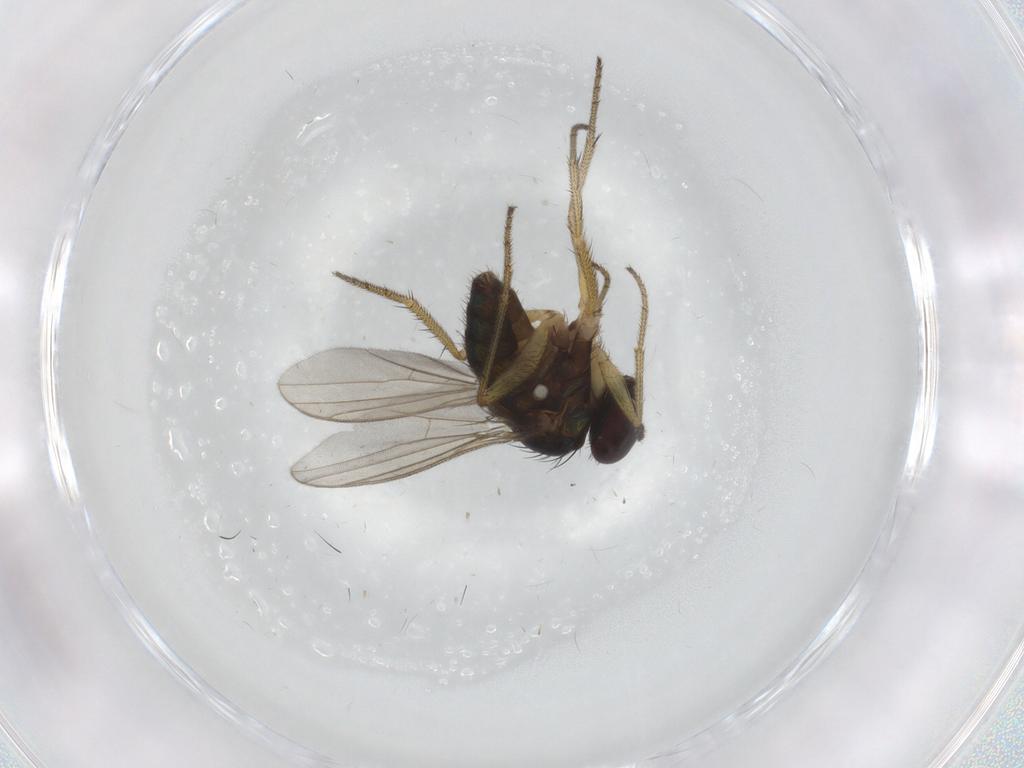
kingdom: Animalia
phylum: Arthropoda
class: Insecta
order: Diptera
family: Dolichopodidae
